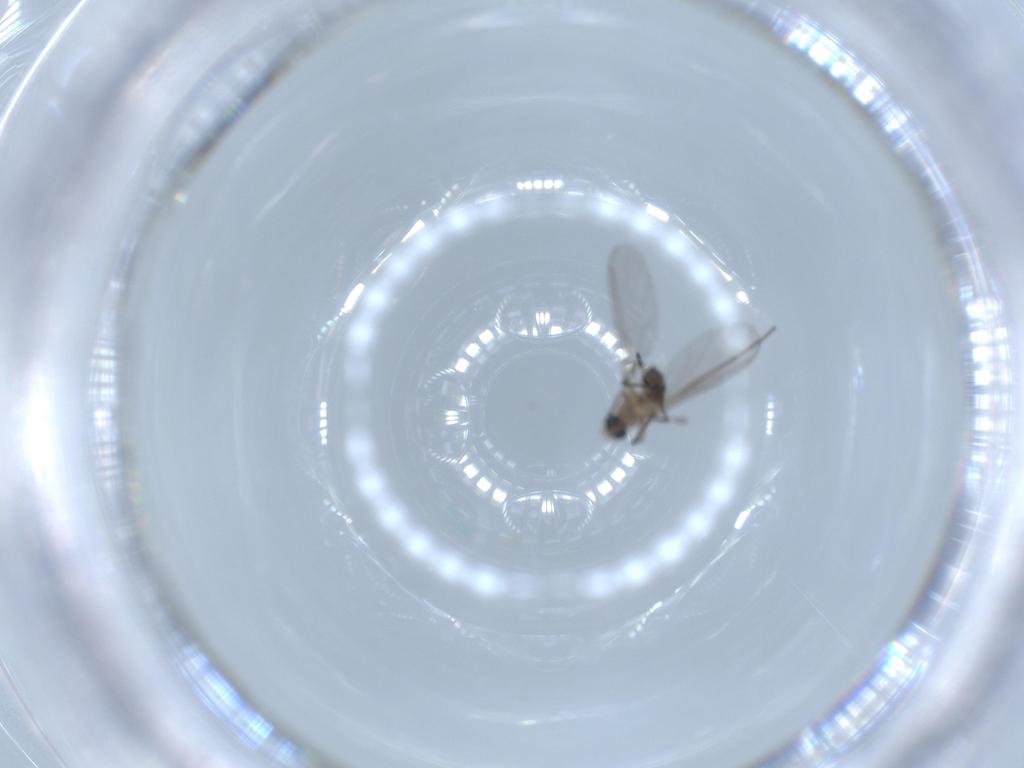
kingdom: Animalia
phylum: Arthropoda
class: Insecta
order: Diptera
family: Sciaridae
